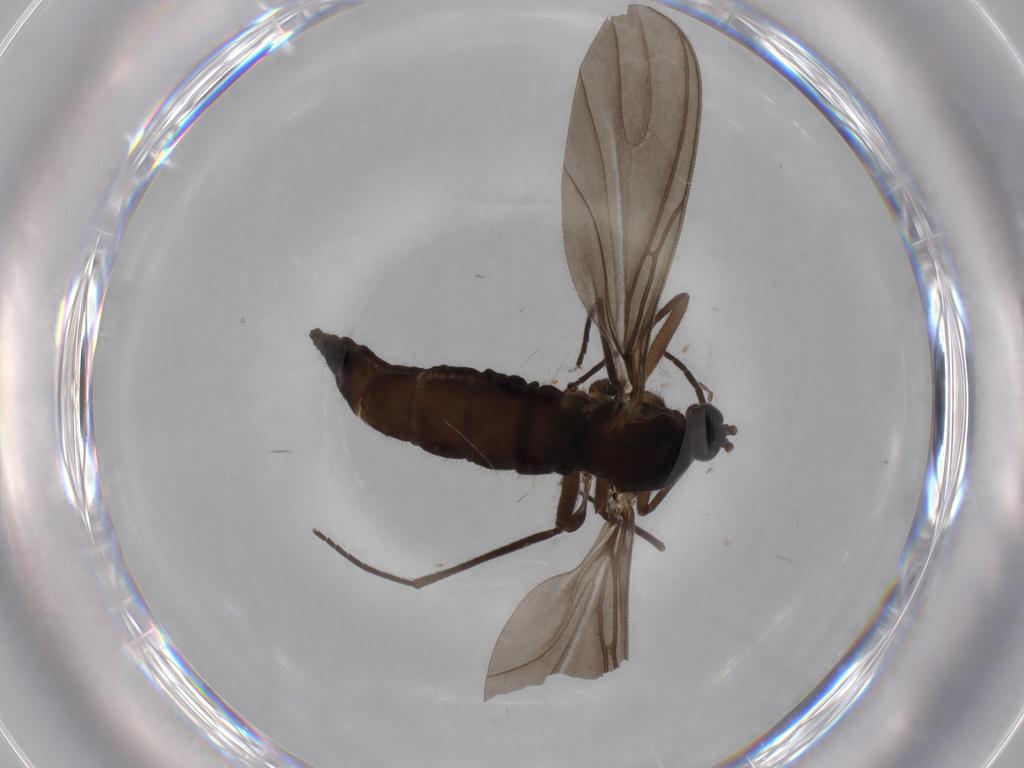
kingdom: Animalia
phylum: Arthropoda
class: Insecta
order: Diptera
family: Sciaridae
